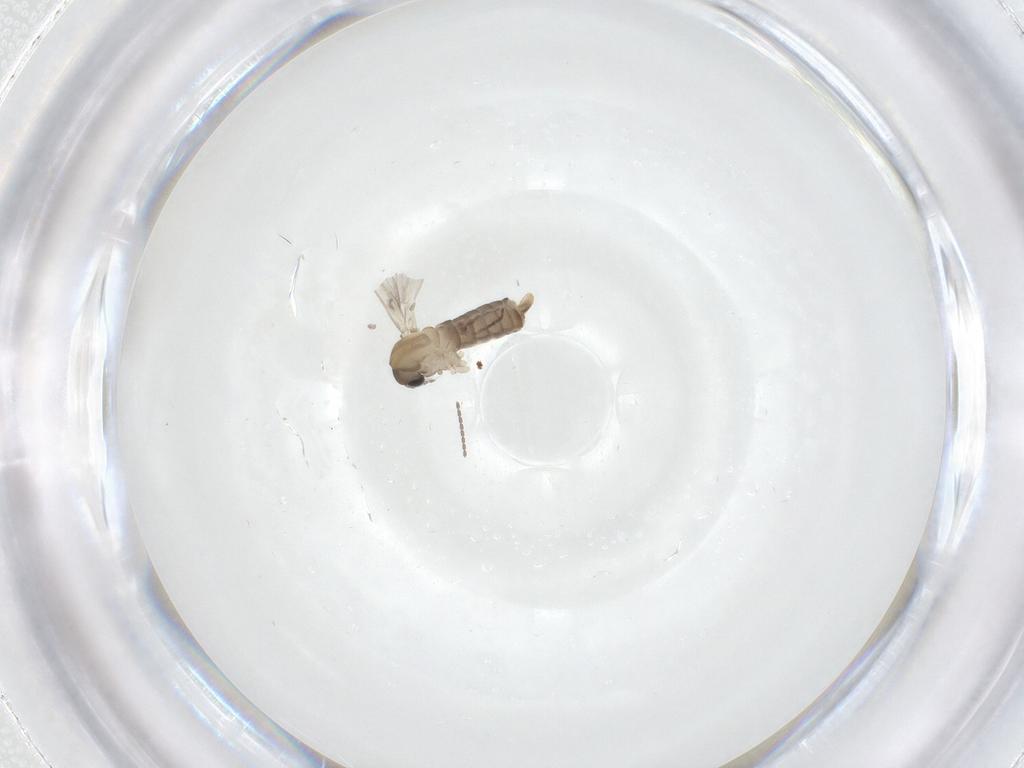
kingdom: Animalia
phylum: Arthropoda
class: Insecta
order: Diptera
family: Psychodidae
